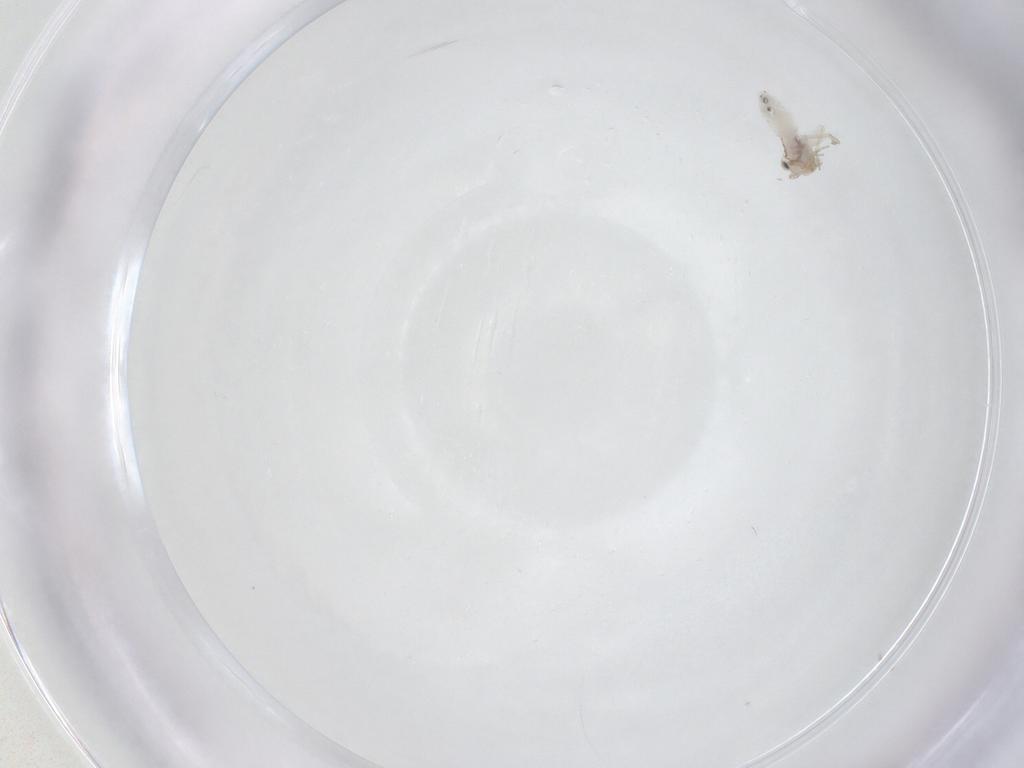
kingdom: Animalia
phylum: Arthropoda
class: Insecta
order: Psocodea
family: Lepidopsocidae
